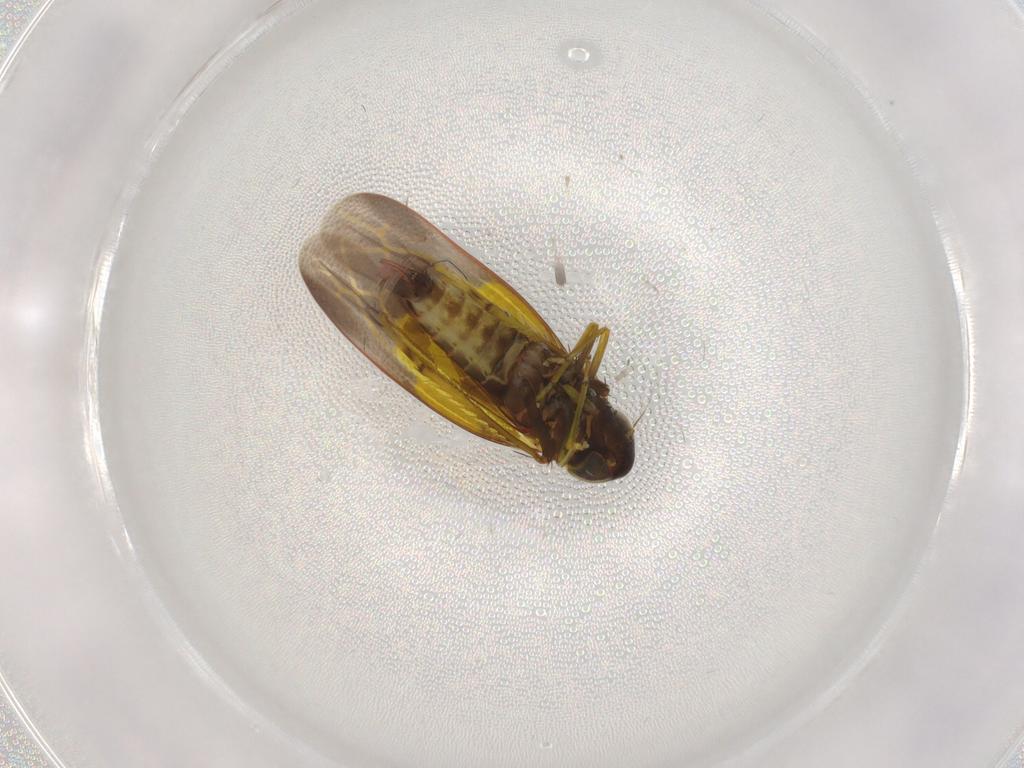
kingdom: Animalia
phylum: Arthropoda
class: Insecta
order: Hemiptera
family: Cicadellidae
